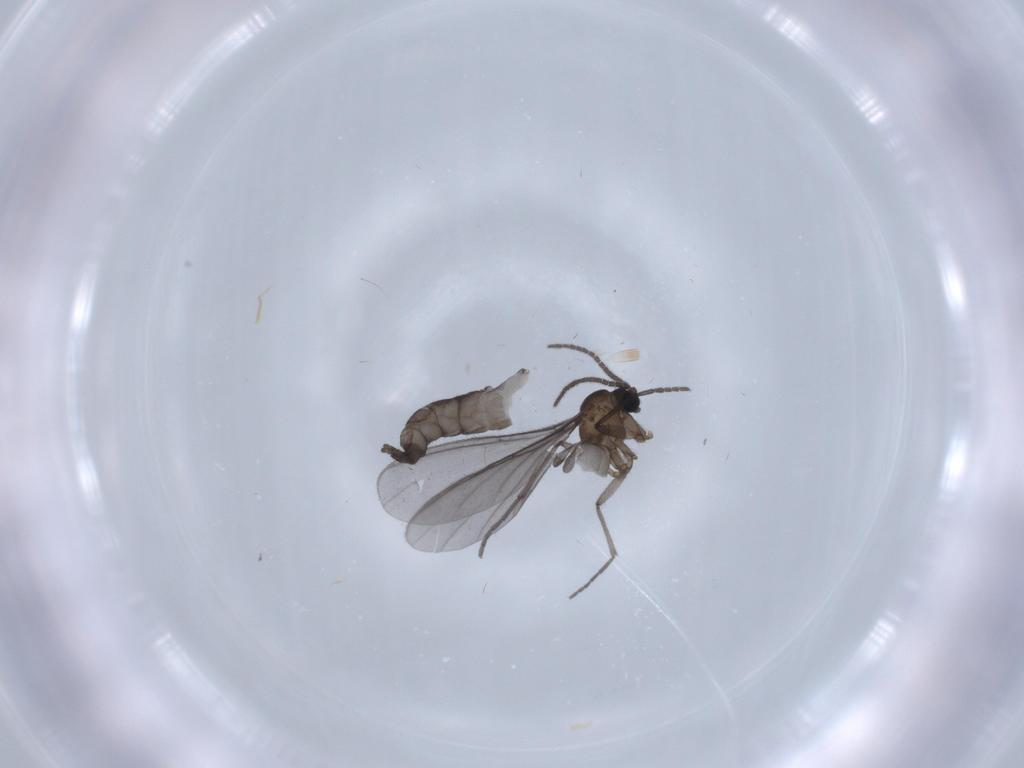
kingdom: Animalia
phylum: Arthropoda
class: Insecta
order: Diptera
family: Sciaridae
